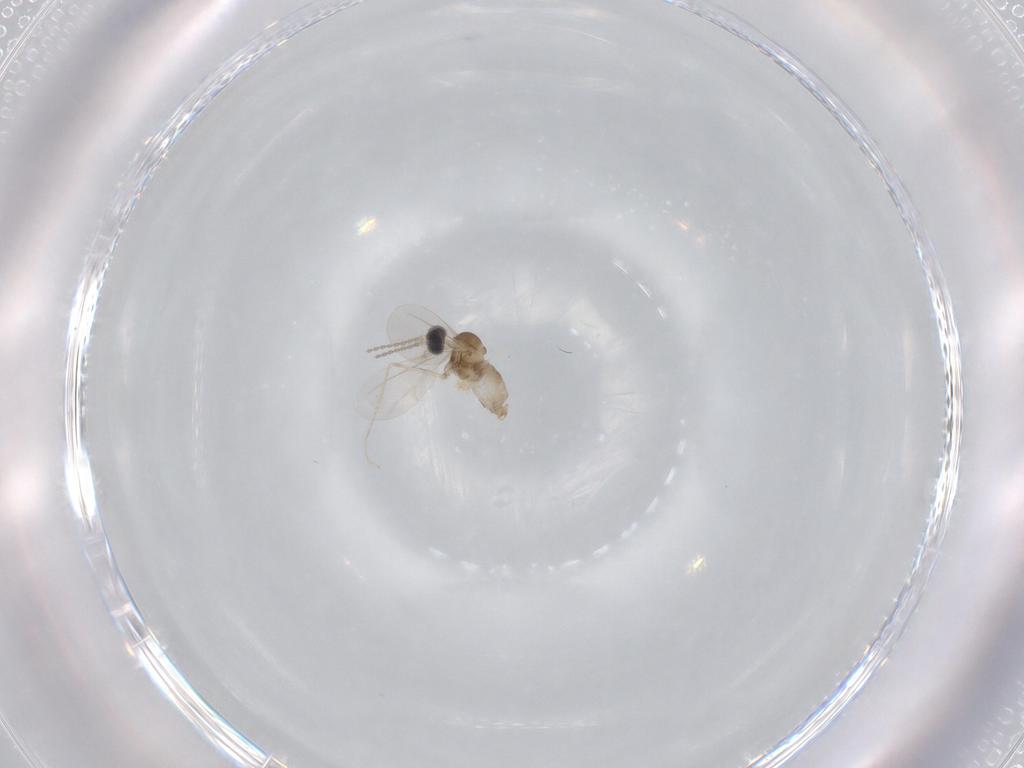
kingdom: Animalia
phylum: Arthropoda
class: Insecta
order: Diptera
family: Cecidomyiidae
